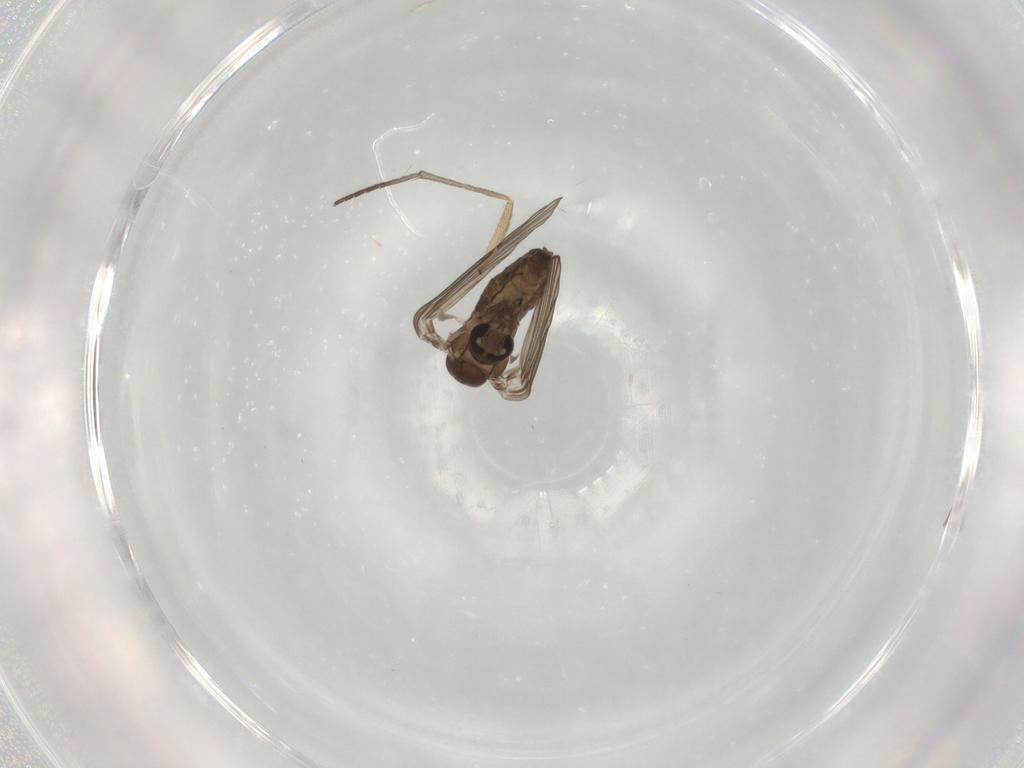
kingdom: Animalia
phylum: Arthropoda
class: Insecta
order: Diptera
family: Psychodidae
